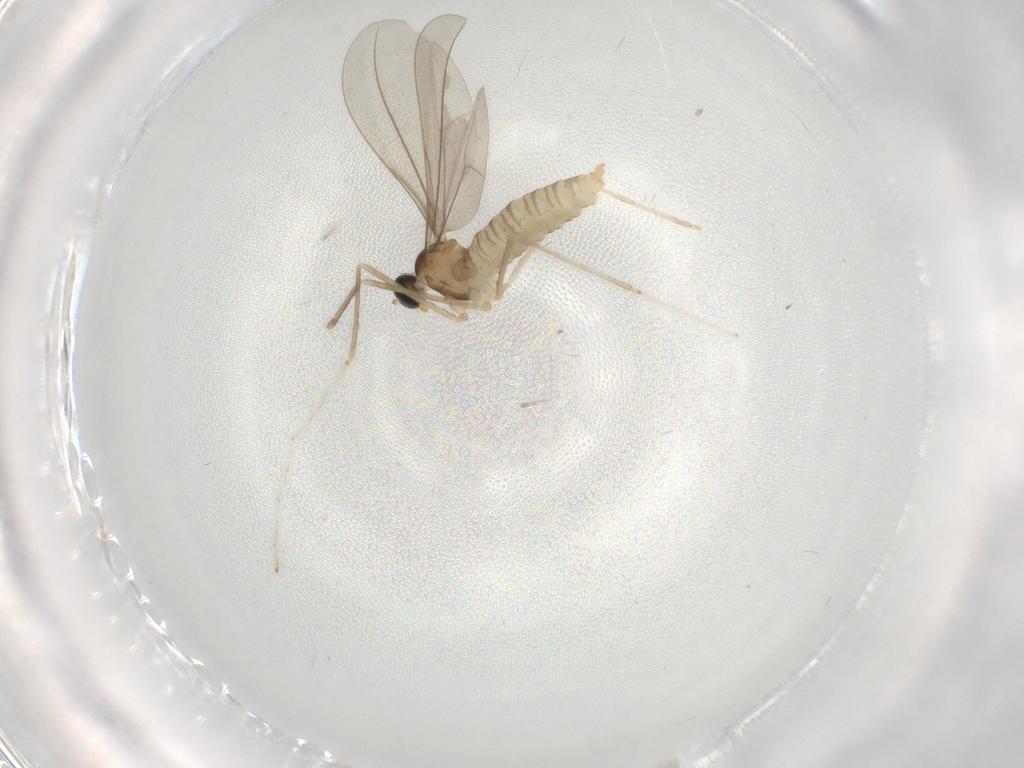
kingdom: Animalia
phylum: Arthropoda
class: Insecta
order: Diptera
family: Cecidomyiidae
